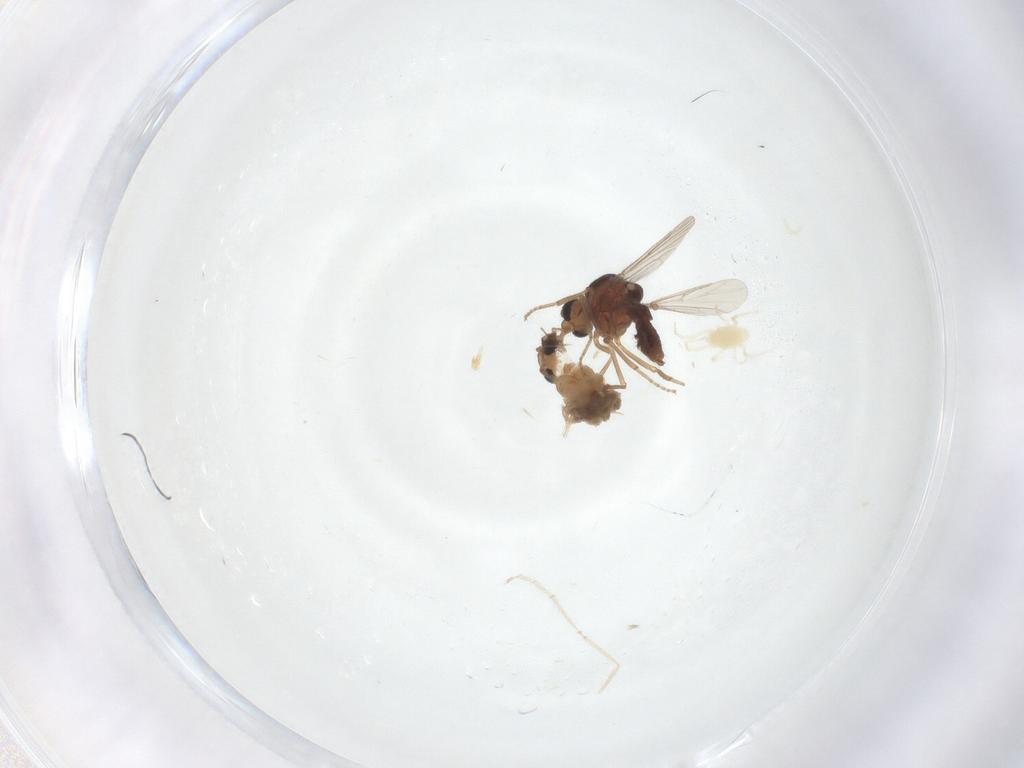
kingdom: Animalia
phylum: Arthropoda
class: Insecta
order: Diptera
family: Chironomidae
